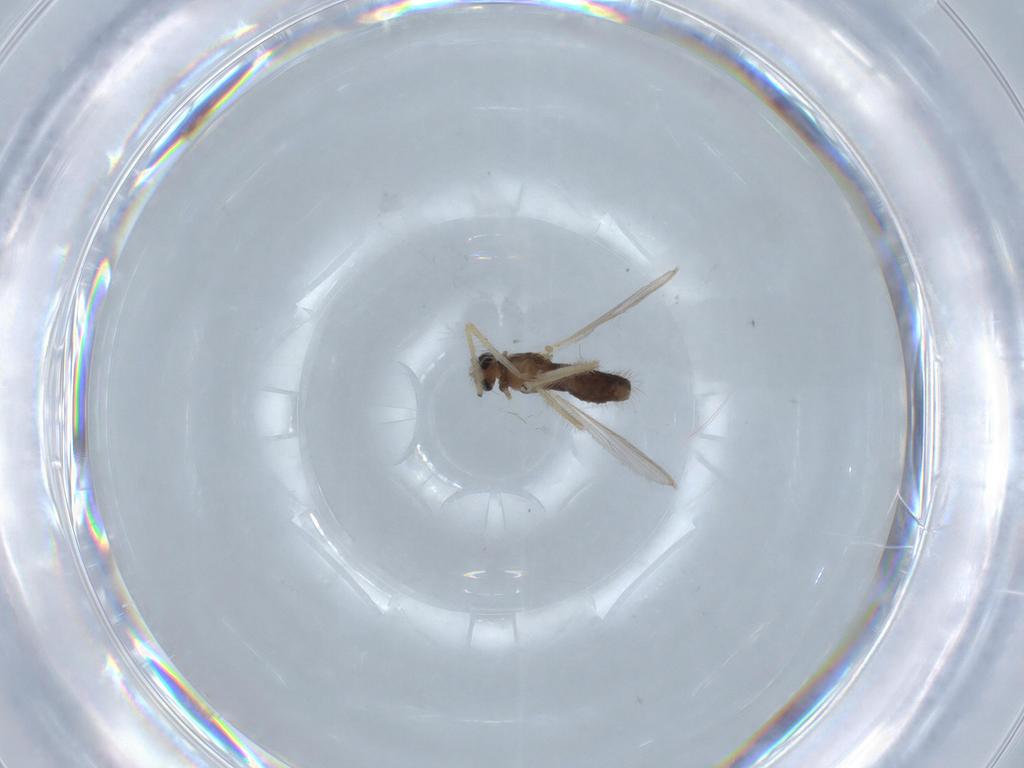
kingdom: Animalia
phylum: Arthropoda
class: Insecta
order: Diptera
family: Chironomidae
